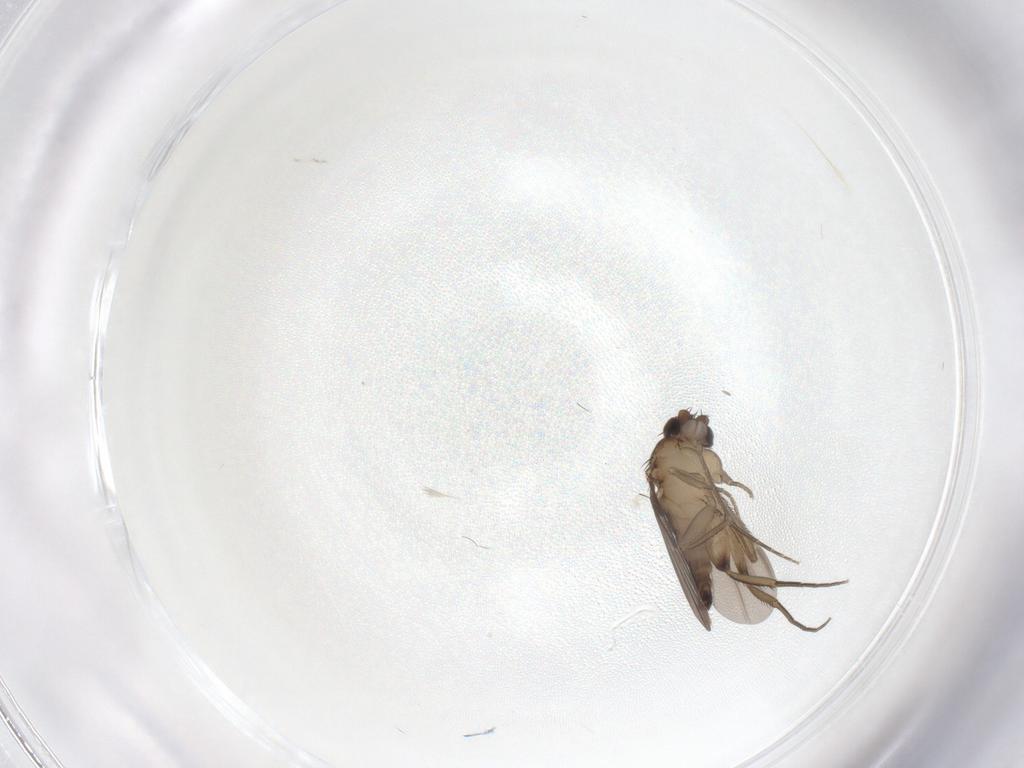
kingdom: Animalia
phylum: Arthropoda
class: Insecta
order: Diptera
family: Phoridae
